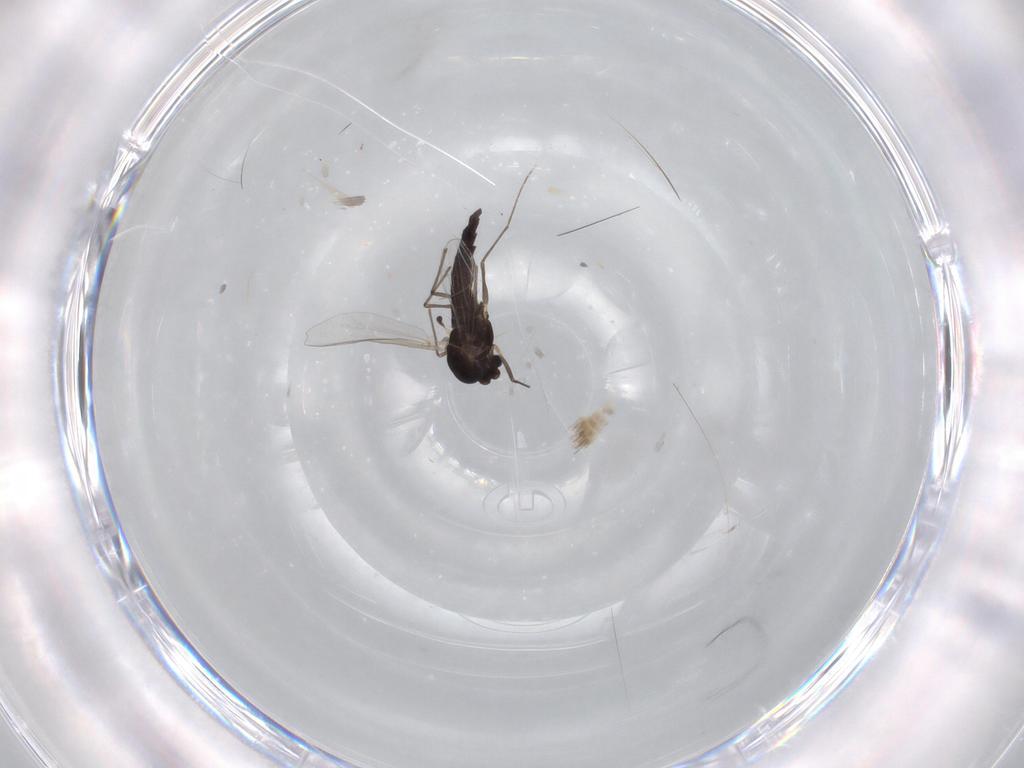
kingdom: Animalia
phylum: Arthropoda
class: Insecta
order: Diptera
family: Chironomidae
